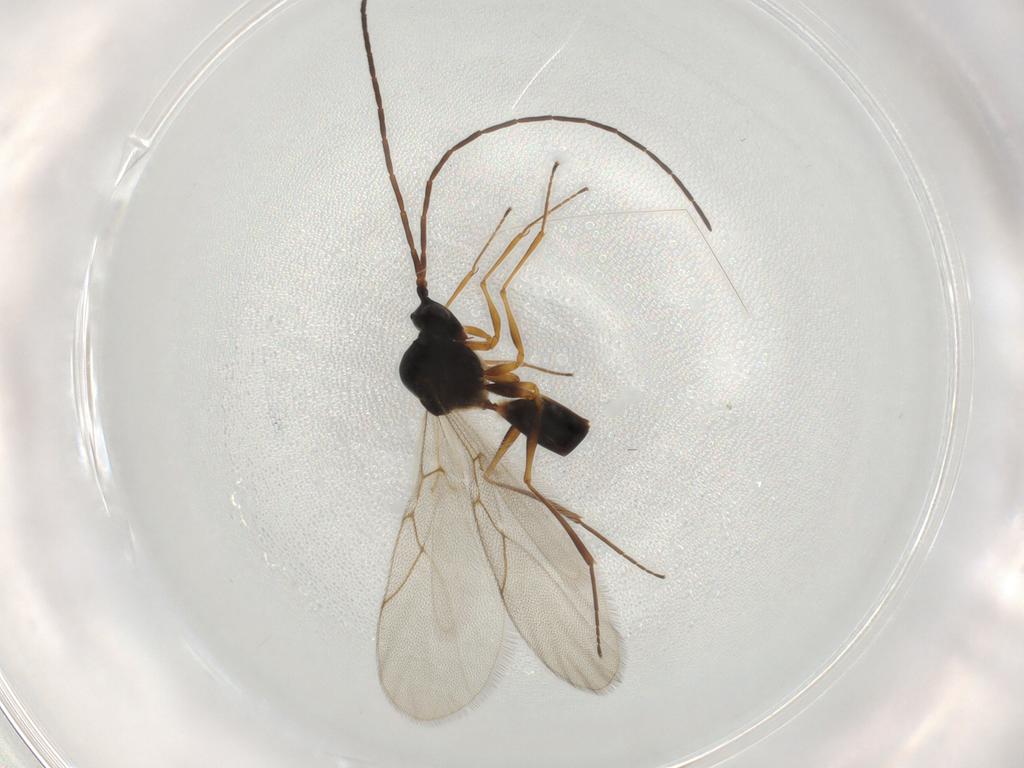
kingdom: Animalia
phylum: Arthropoda
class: Insecta
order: Hymenoptera
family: Figitidae
